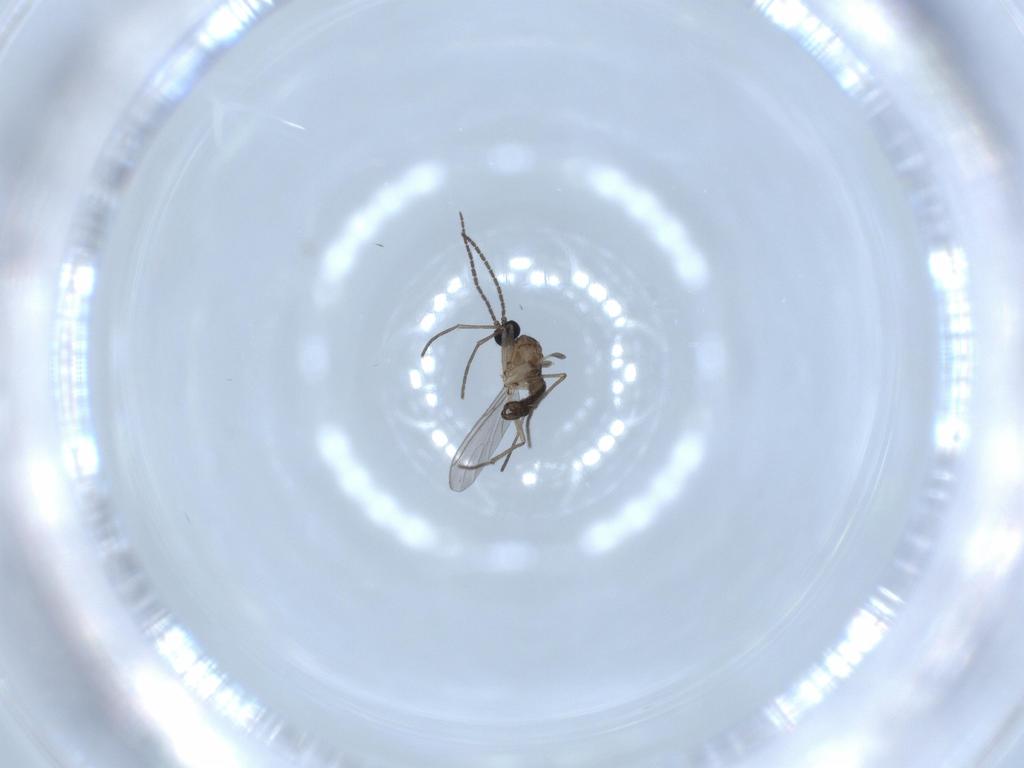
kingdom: Animalia
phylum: Arthropoda
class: Insecta
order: Diptera
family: Sciaridae
